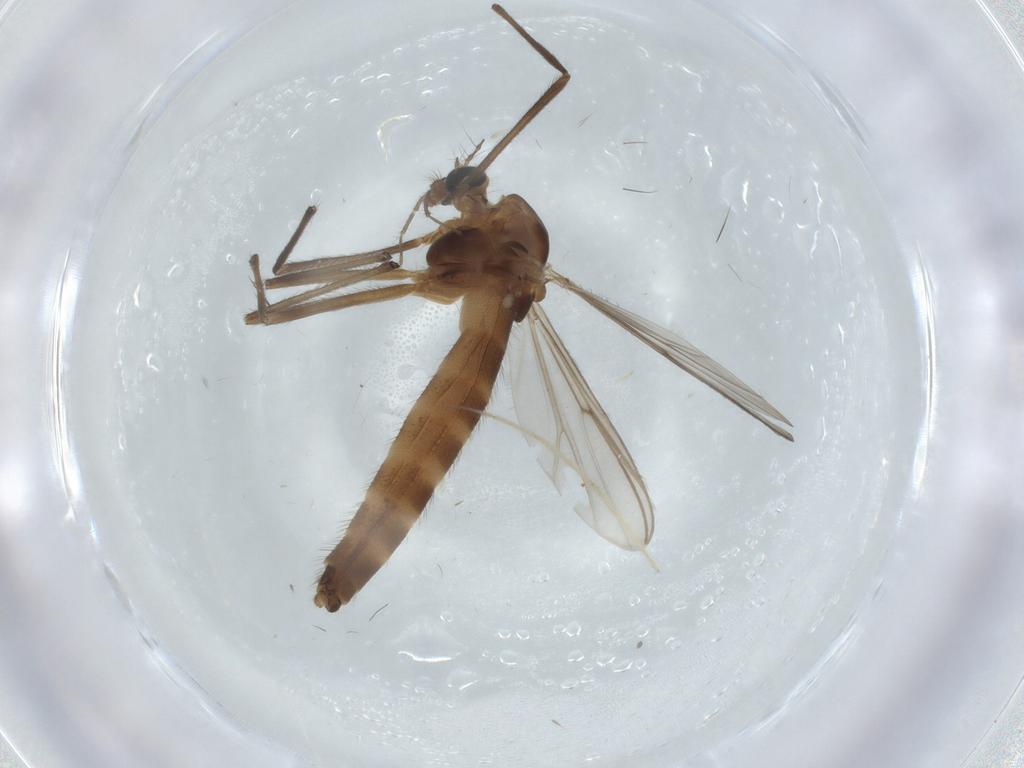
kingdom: Animalia
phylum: Arthropoda
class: Insecta
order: Diptera
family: Chironomidae
